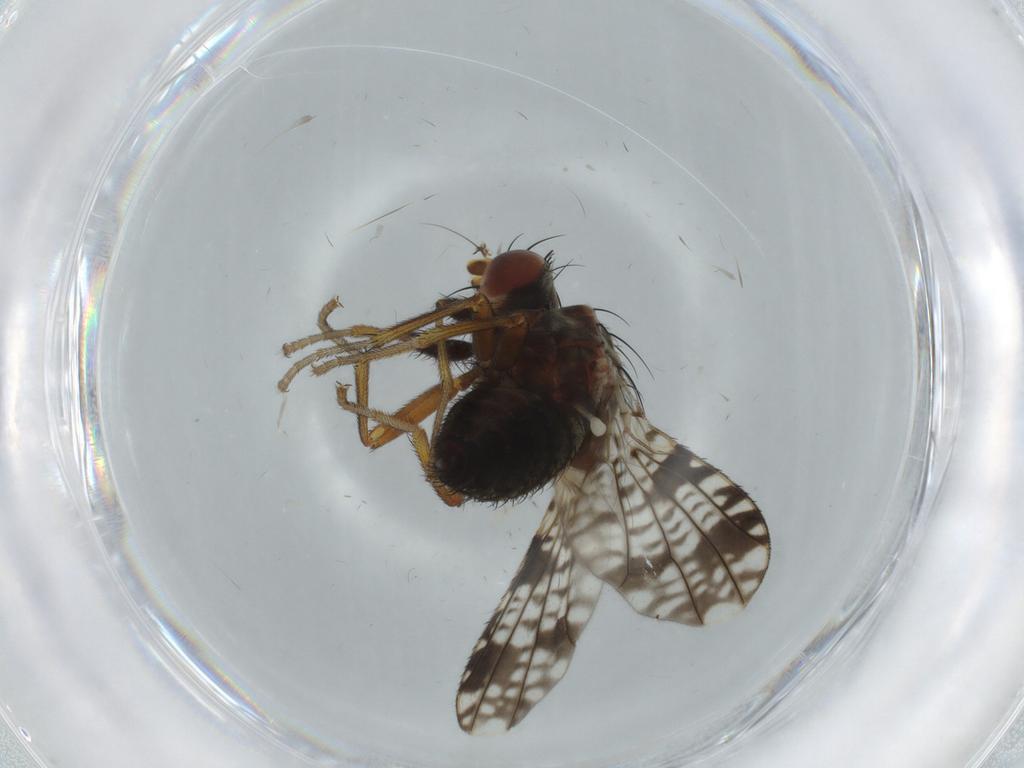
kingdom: Animalia
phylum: Arthropoda
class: Insecta
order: Diptera
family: Tephritidae
